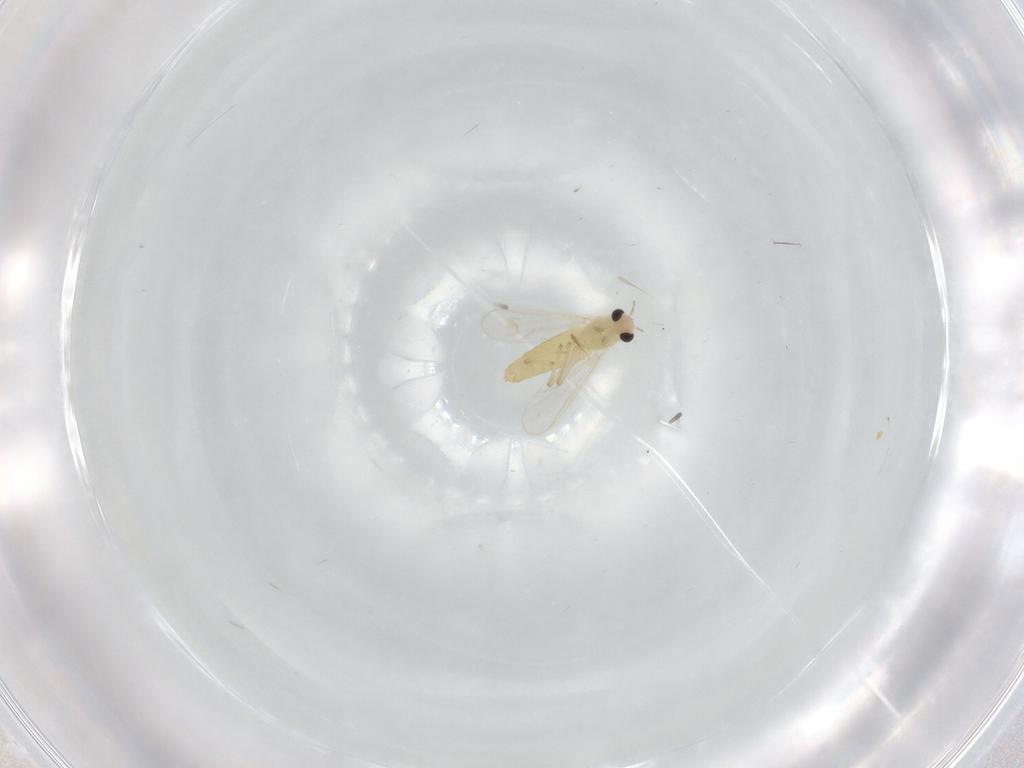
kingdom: Animalia
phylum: Arthropoda
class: Insecta
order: Diptera
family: Chironomidae
